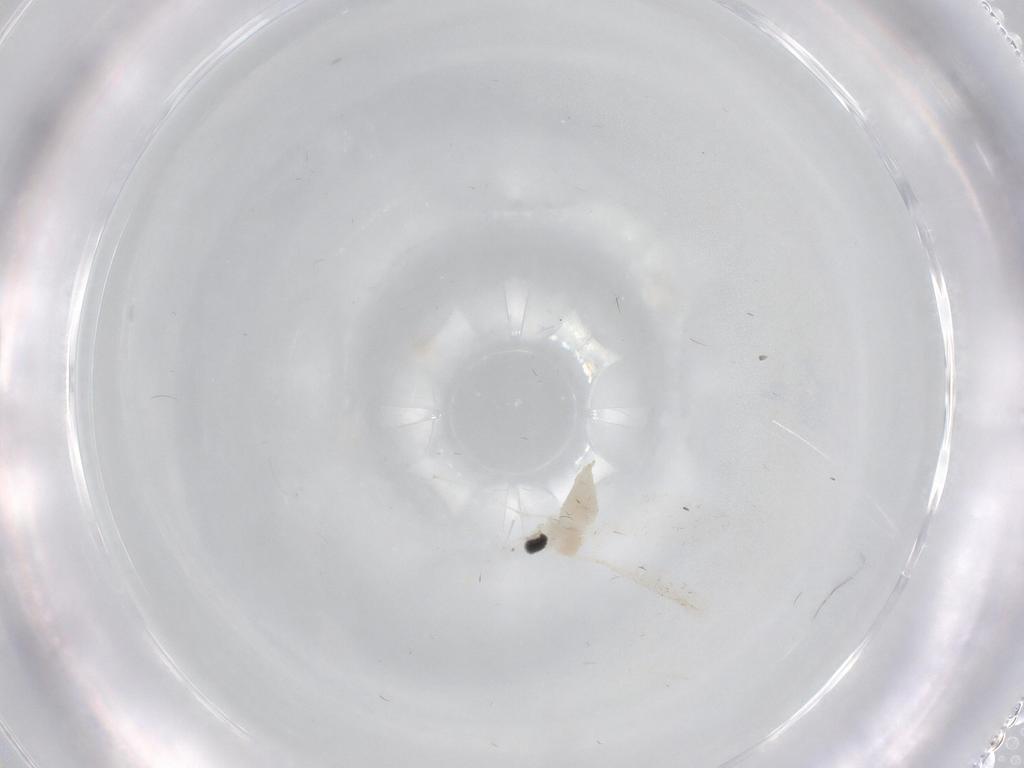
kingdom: Animalia
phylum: Arthropoda
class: Insecta
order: Diptera
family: Cecidomyiidae
